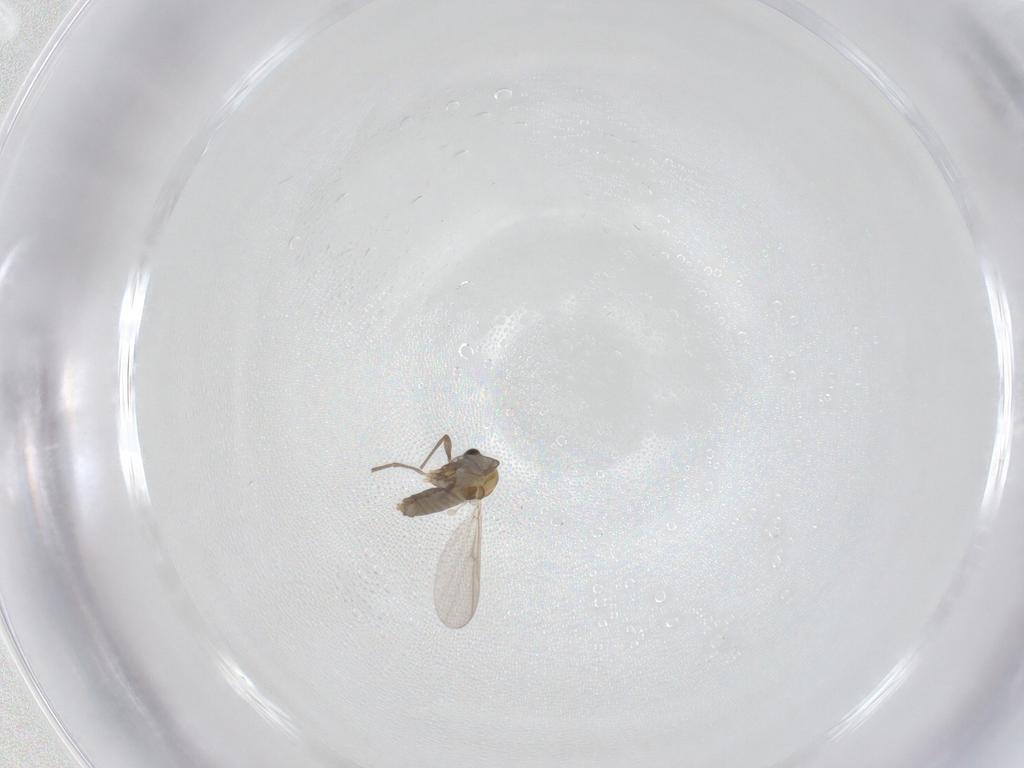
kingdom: Animalia
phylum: Arthropoda
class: Insecta
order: Diptera
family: Chironomidae
